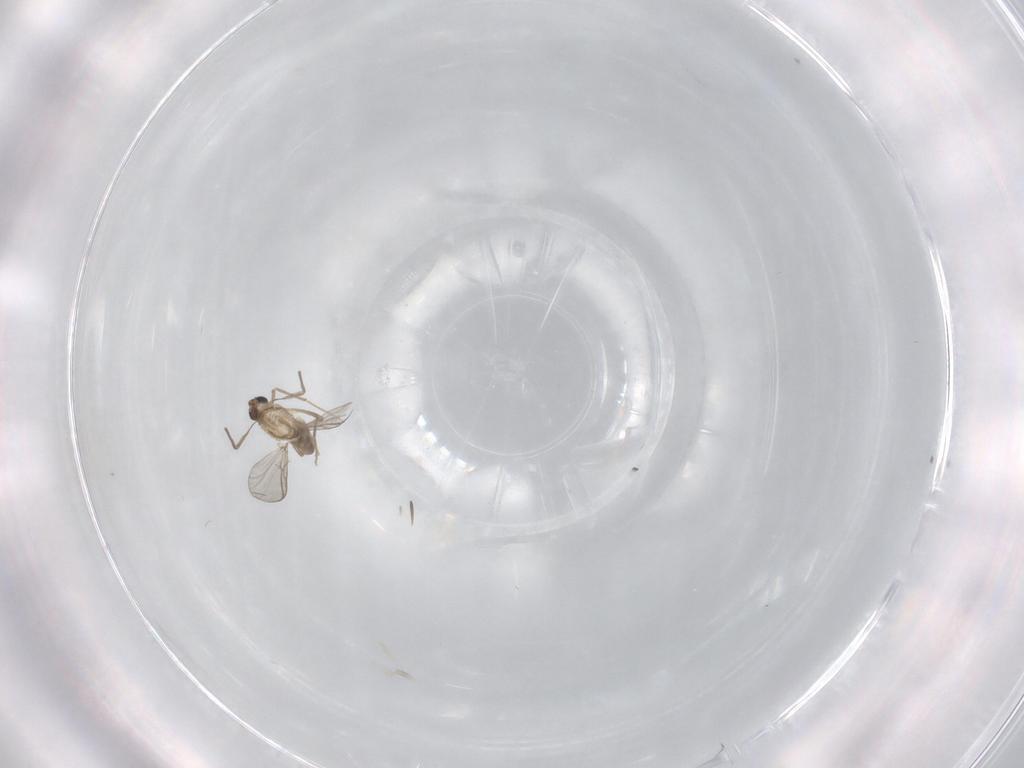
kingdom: Animalia
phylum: Arthropoda
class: Insecta
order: Diptera
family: Chironomidae
